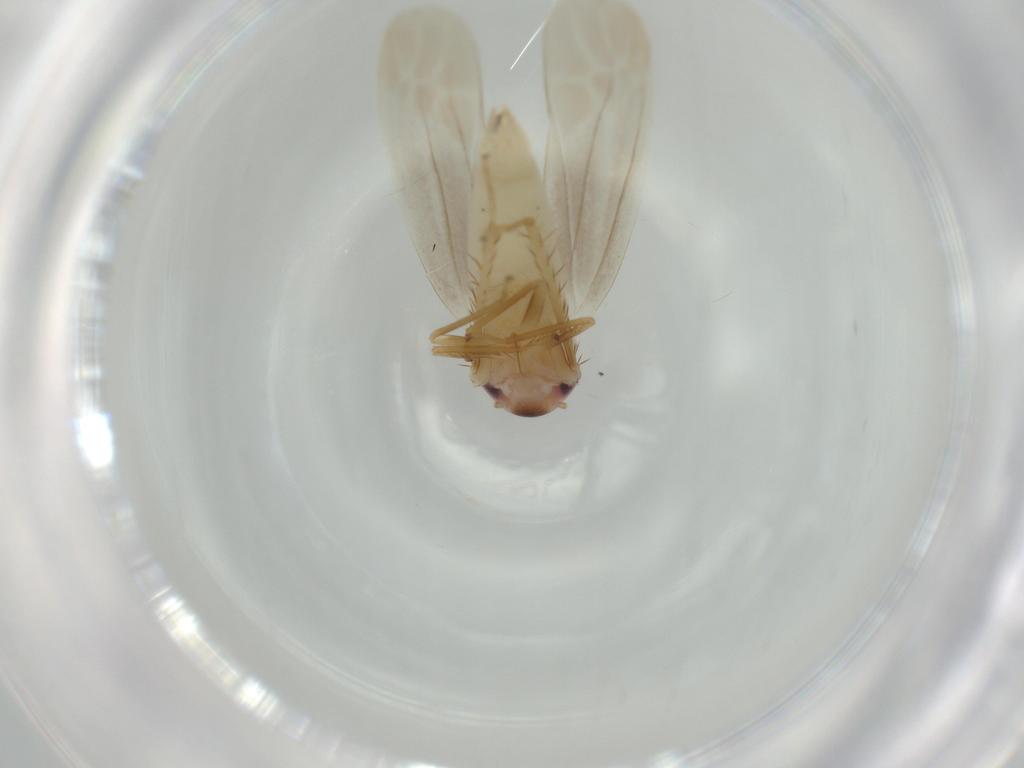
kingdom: Animalia
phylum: Arthropoda
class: Insecta
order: Hemiptera
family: Cicadellidae
